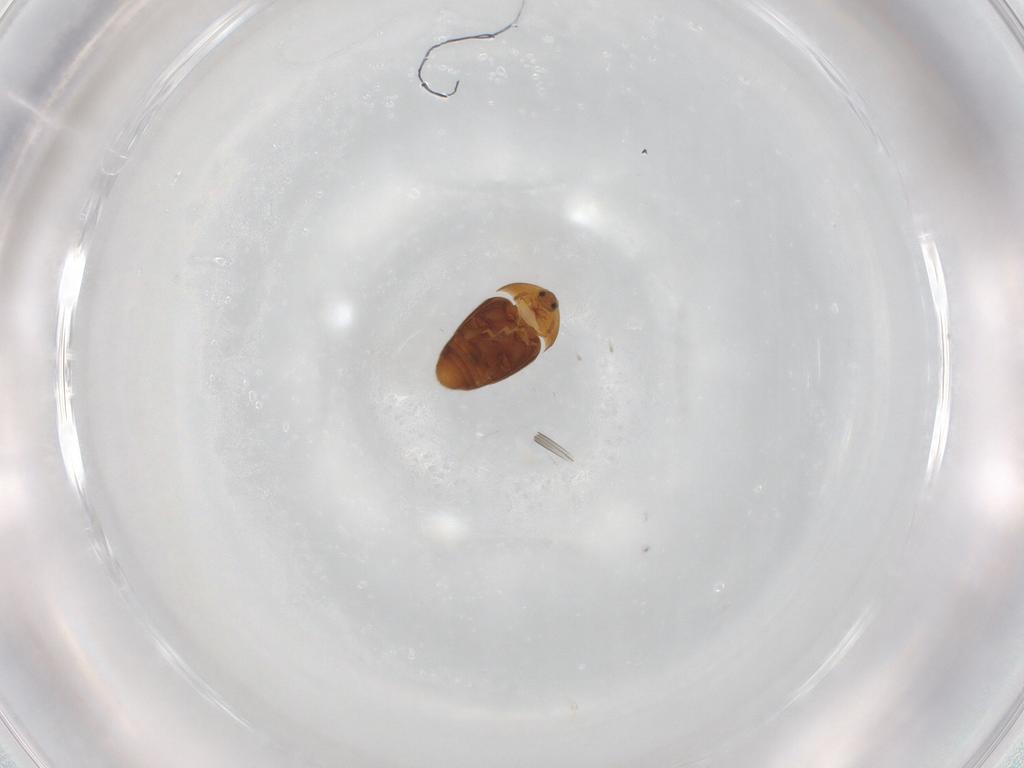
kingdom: Animalia
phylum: Arthropoda
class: Insecta
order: Coleoptera
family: Corylophidae
